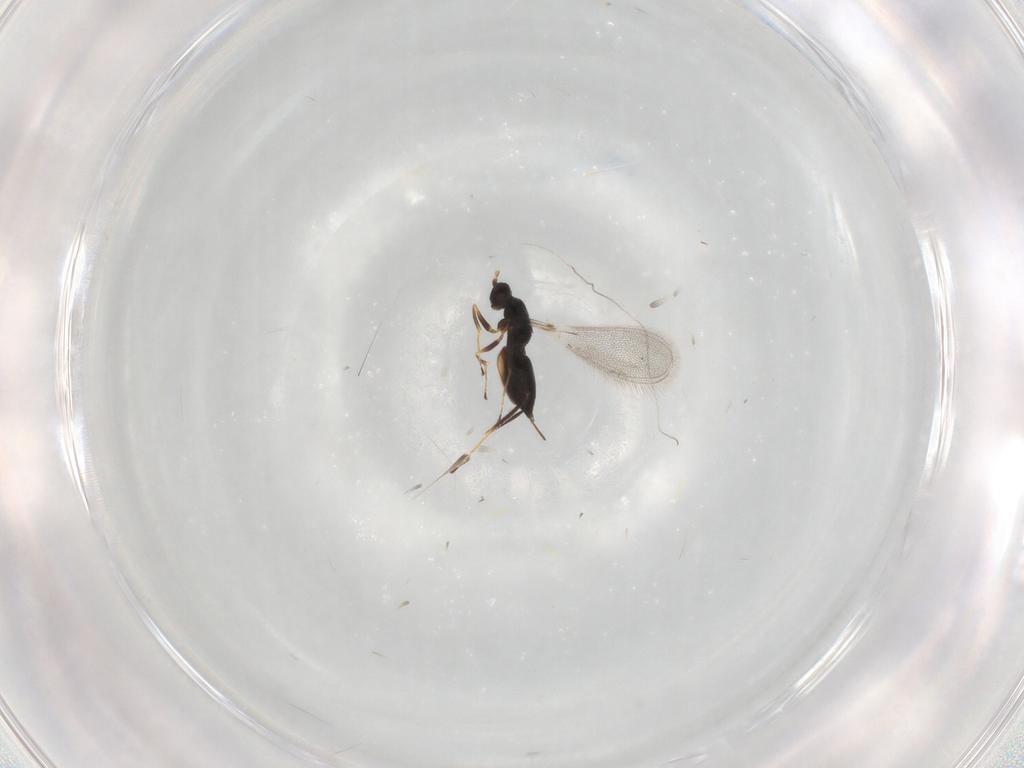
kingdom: Animalia
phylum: Arthropoda
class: Insecta
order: Hymenoptera
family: Mymaridae
